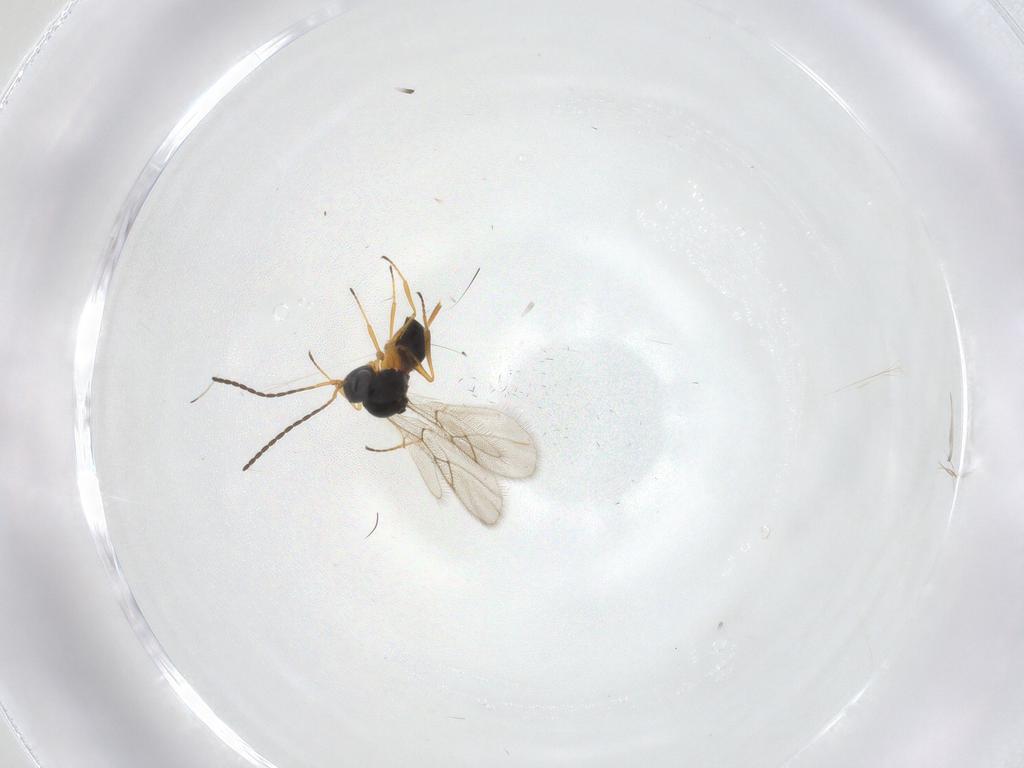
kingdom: Animalia
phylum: Arthropoda
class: Insecta
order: Hymenoptera
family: Figitidae
